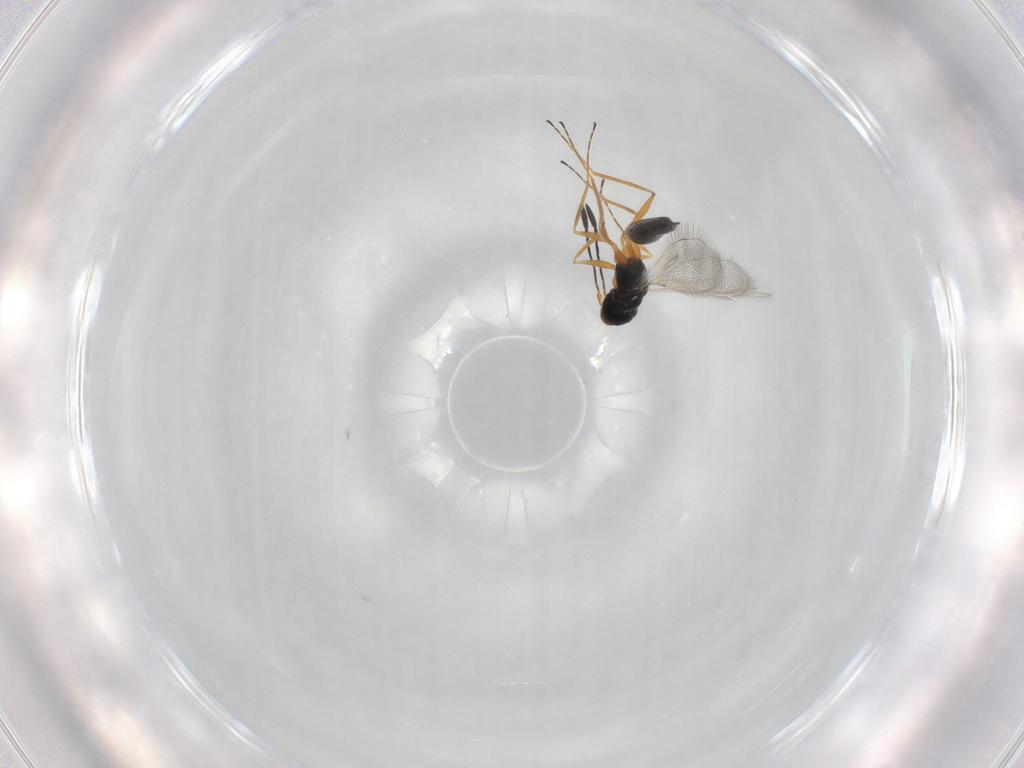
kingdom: Animalia
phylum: Arthropoda
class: Insecta
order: Hymenoptera
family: Mymaridae
